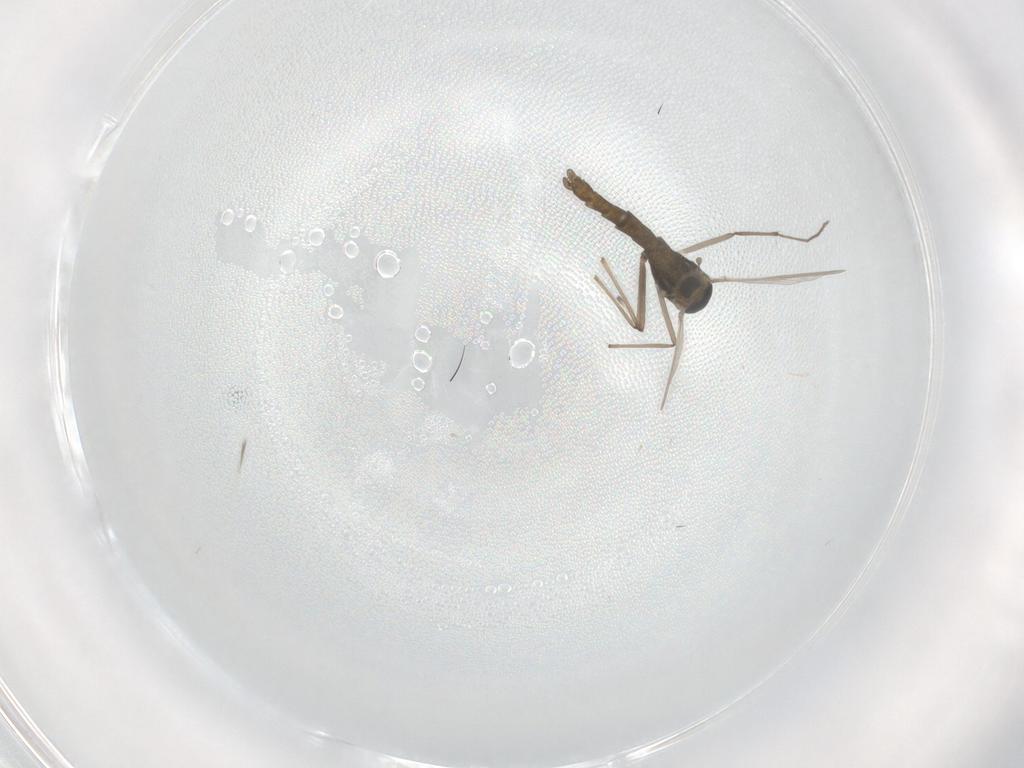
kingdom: Animalia
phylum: Arthropoda
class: Insecta
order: Diptera
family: Chironomidae
